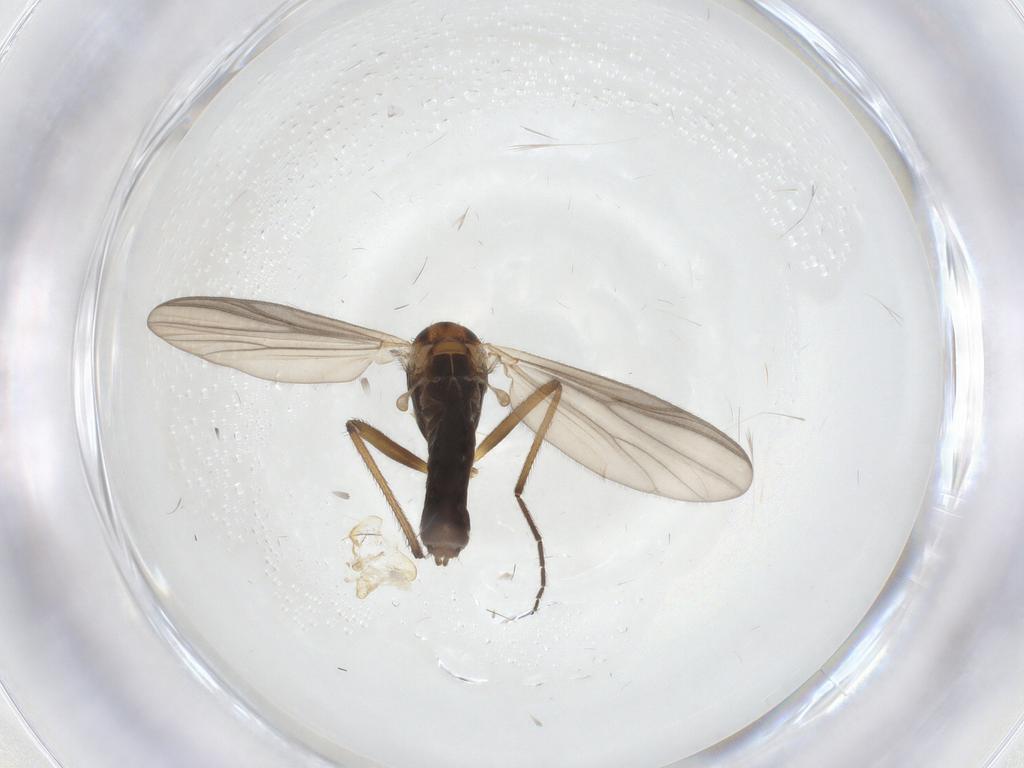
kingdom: Animalia
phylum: Arthropoda
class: Insecta
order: Diptera
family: Chironomidae
